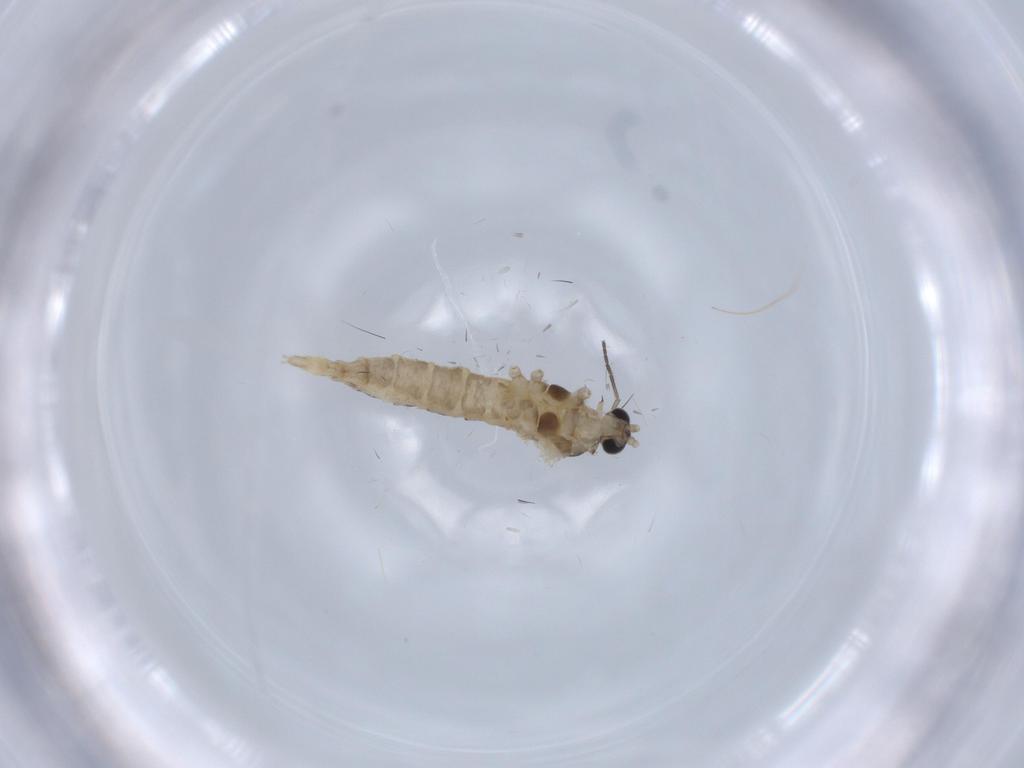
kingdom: Animalia
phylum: Arthropoda
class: Insecta
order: Diptera
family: Cecidomyiidae
